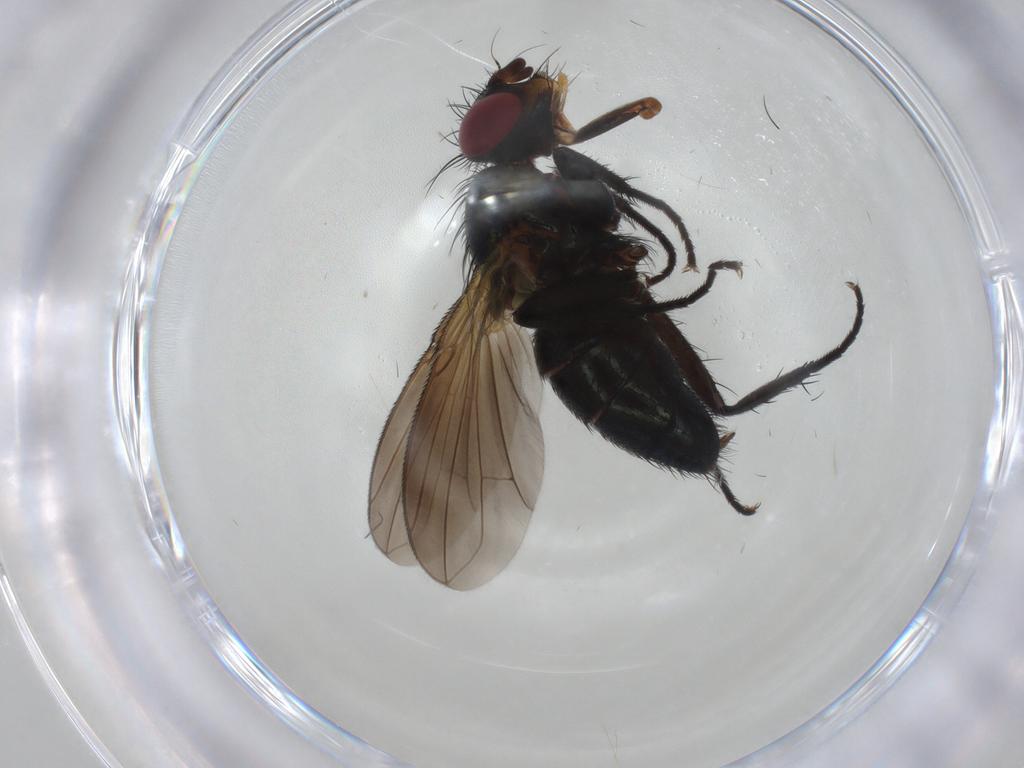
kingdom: Animalia
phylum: Arthropoda
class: Insecta
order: Diptera
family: Calliphoridae
